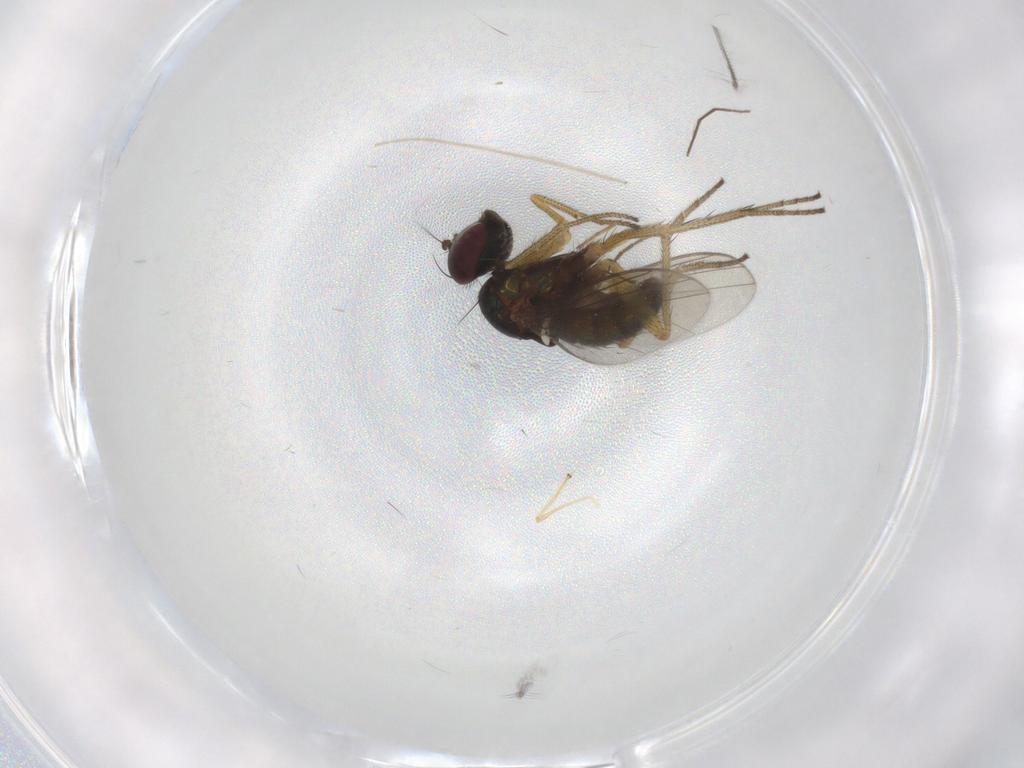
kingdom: Animalia
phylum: Arthropoda
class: Insecta
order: Diptera
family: Chironomidae
